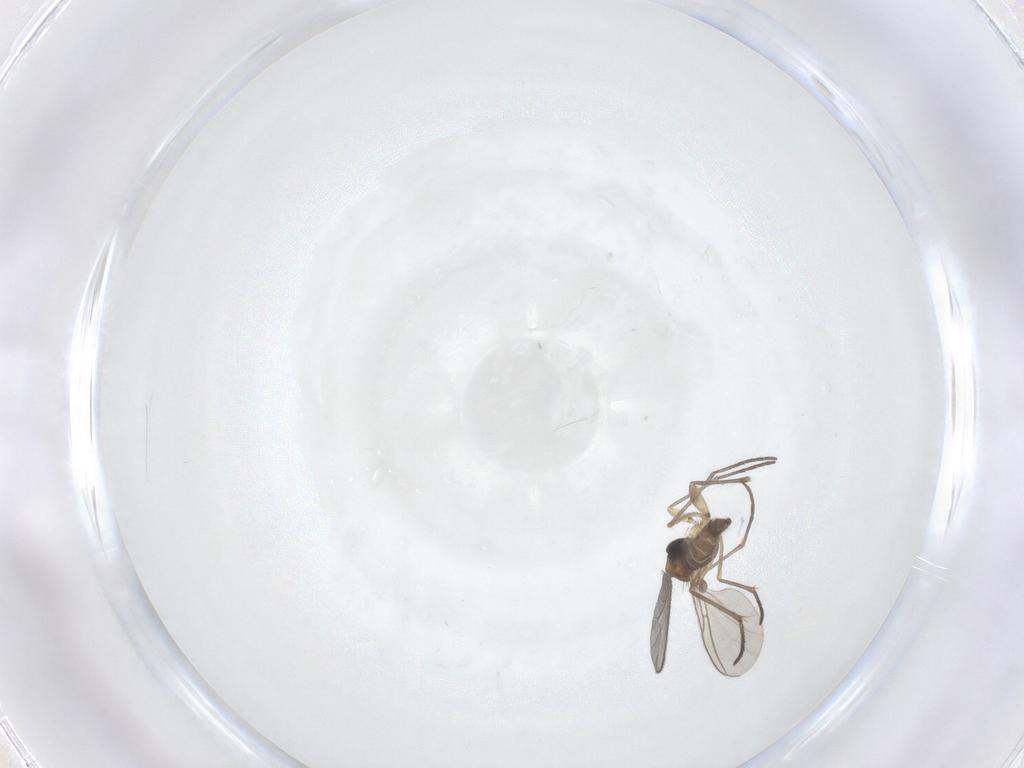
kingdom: Animalia
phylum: Arthropoda
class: Insecta
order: Diptera
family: Sciaridae
